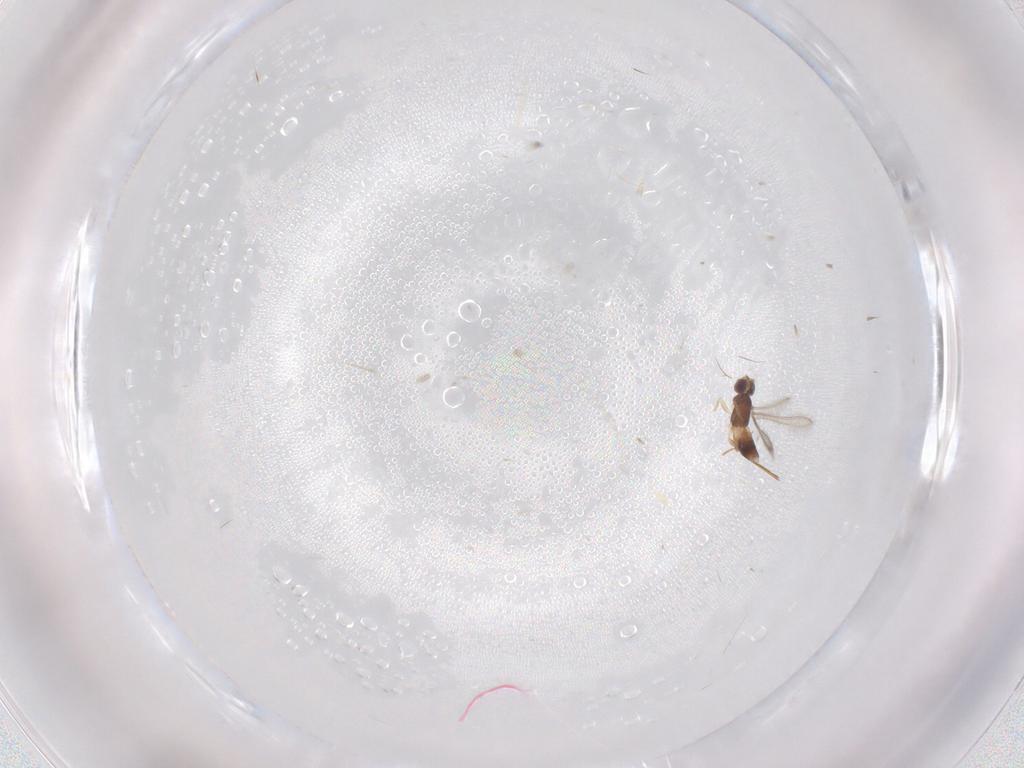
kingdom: Animalia
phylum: Arthropoda
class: Insecta
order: Hymenoptera
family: Mymaridae
